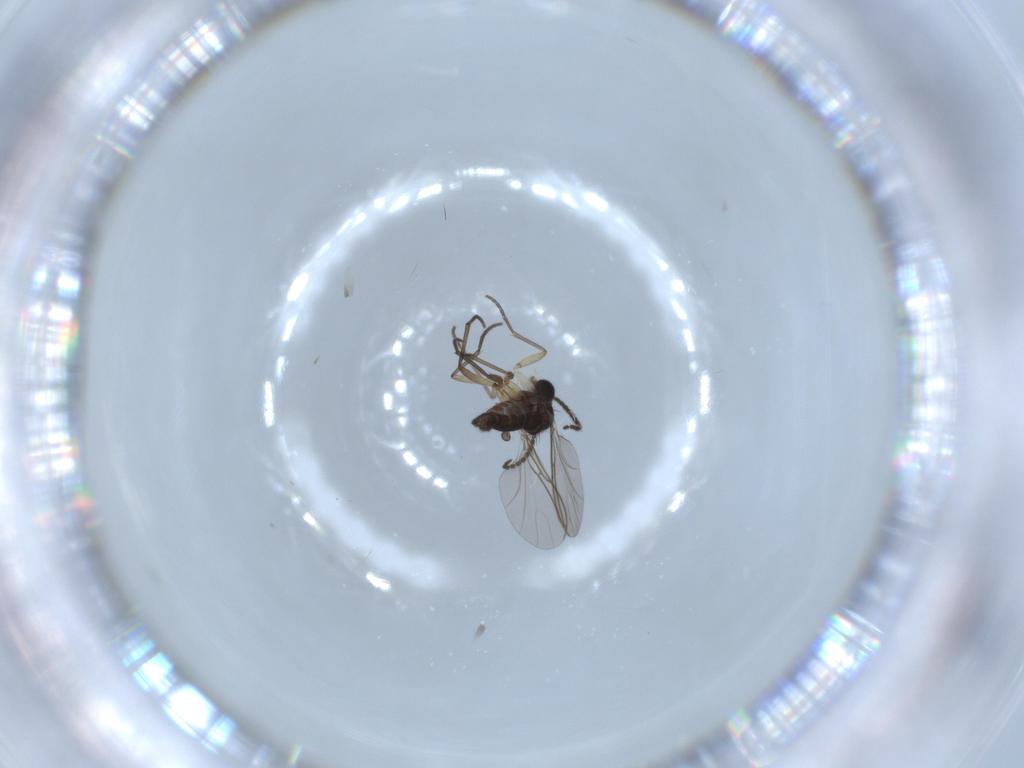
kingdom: Animalia
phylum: Arthropoda
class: Insecta
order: Diptera
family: Sciaridae
